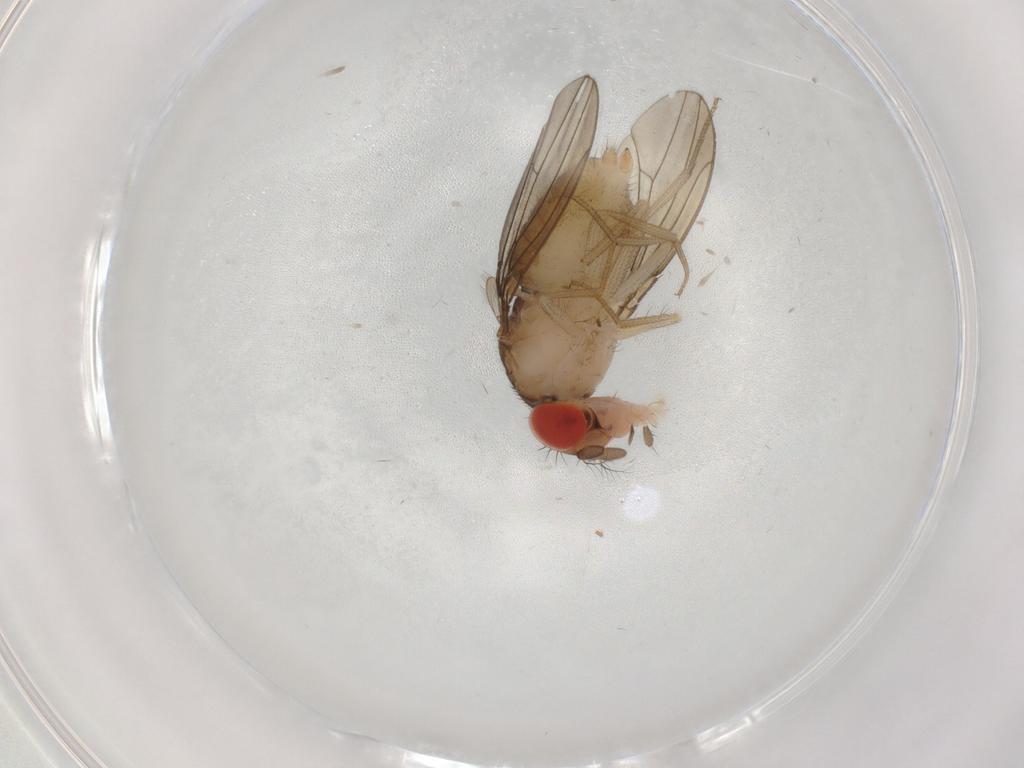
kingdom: Animalia
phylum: Arthropoda
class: Insecta
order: Diptera
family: Drosophilidae
